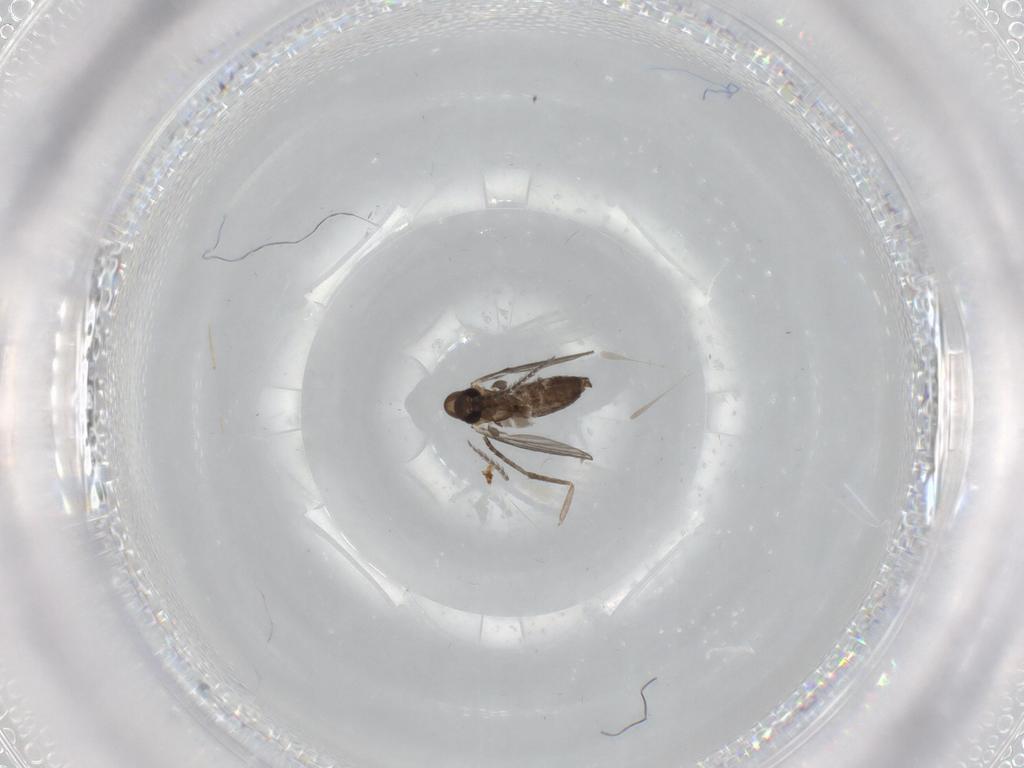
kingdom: Animalia
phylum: Arthropoda
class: Insecta
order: Diptera
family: Psychodidae
